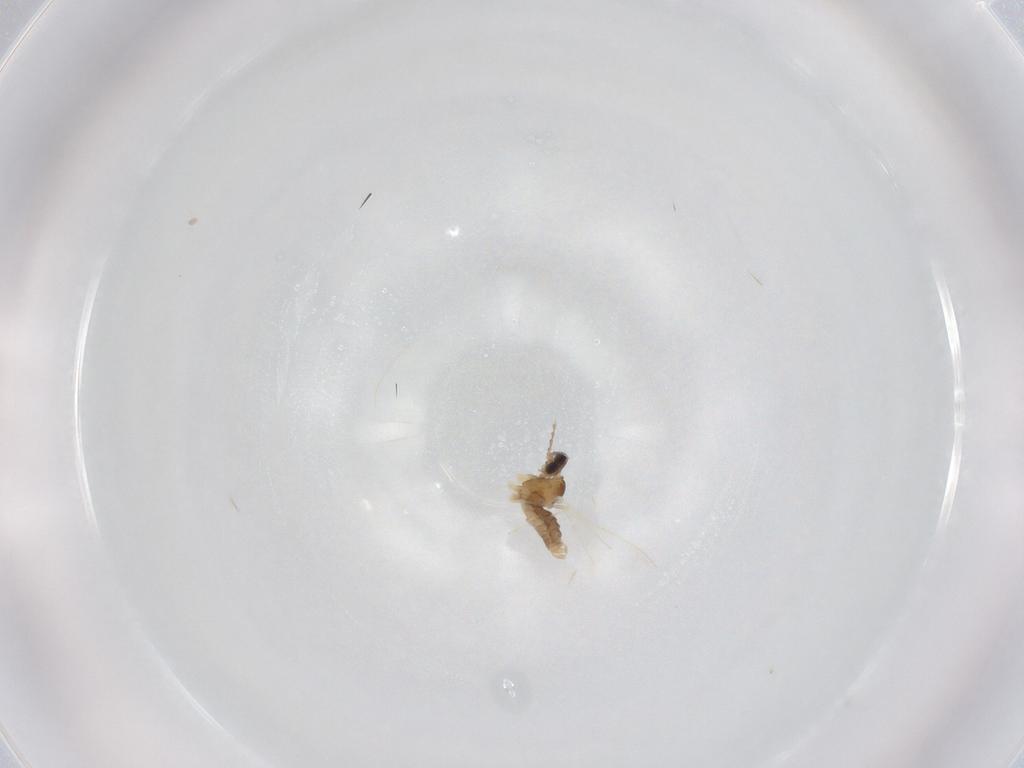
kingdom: Animalia
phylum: Arthropoda
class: Insecta
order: Diptera
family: Cecidomyiidae
